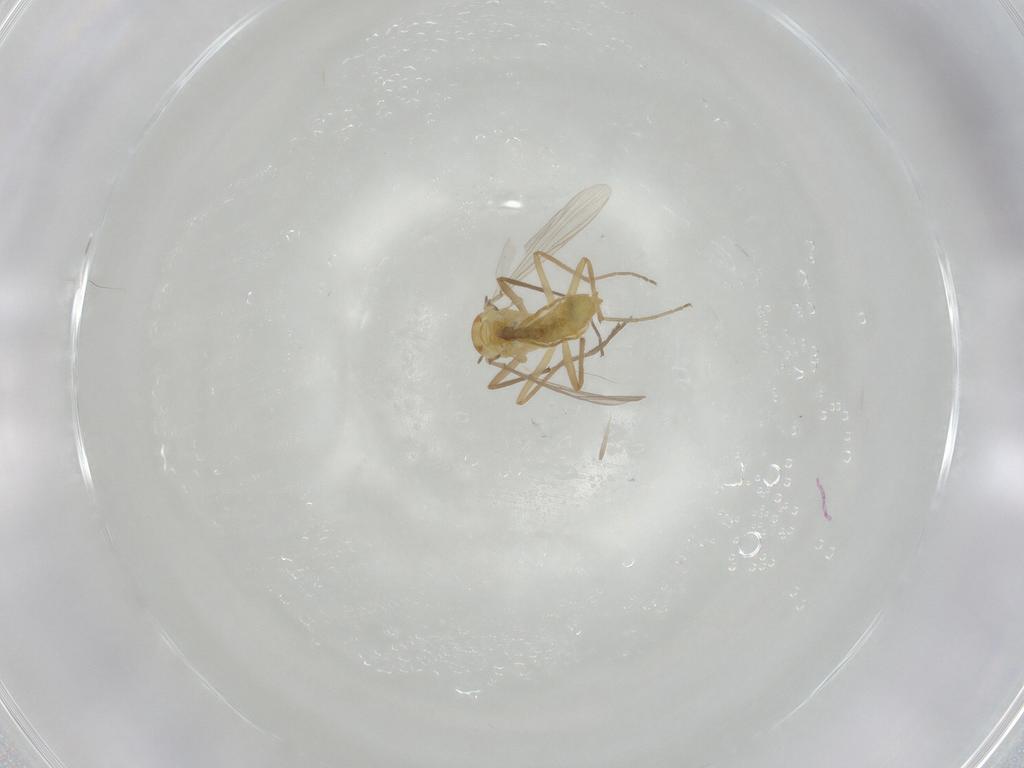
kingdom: Animalia
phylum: Arthropoda
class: Insecta
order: Diptera
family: Chironomidae
